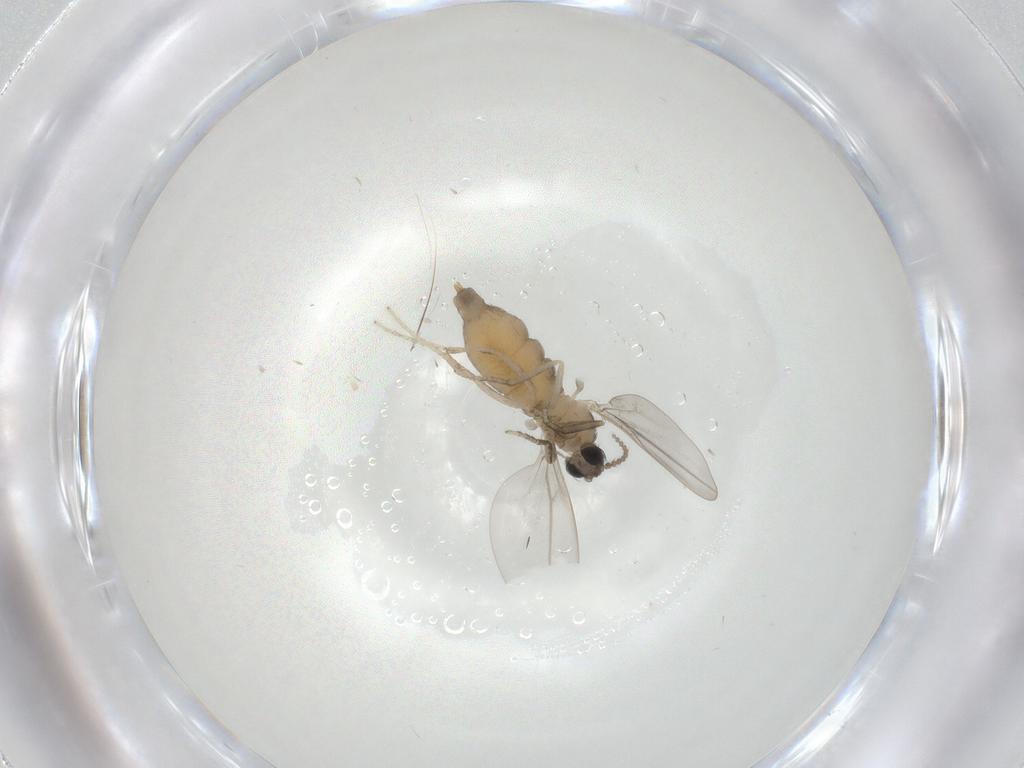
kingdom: Animalia
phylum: Arthropoda
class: Insecta
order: Diptera
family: Cecidomyiidae
